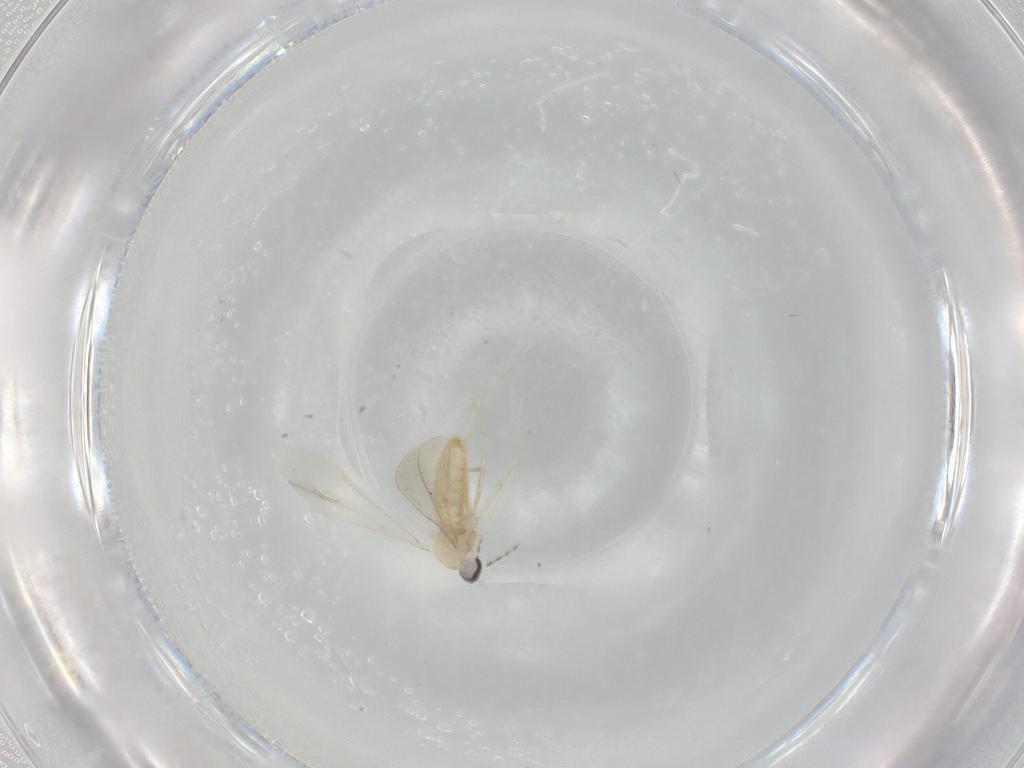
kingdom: Animalia
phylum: Arthropoda
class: Insecta
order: Diptera
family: Cecidomyiidae
